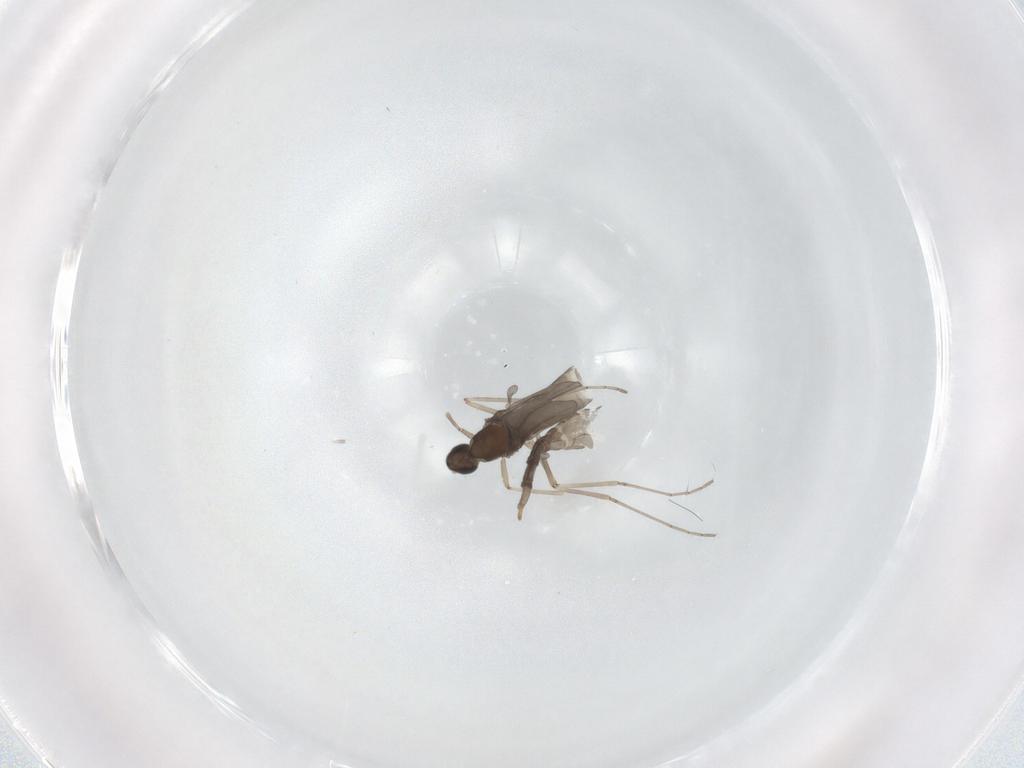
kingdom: Animalia
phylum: Arthropoda
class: Insecta
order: Diptera
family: Cecidomyiidae
